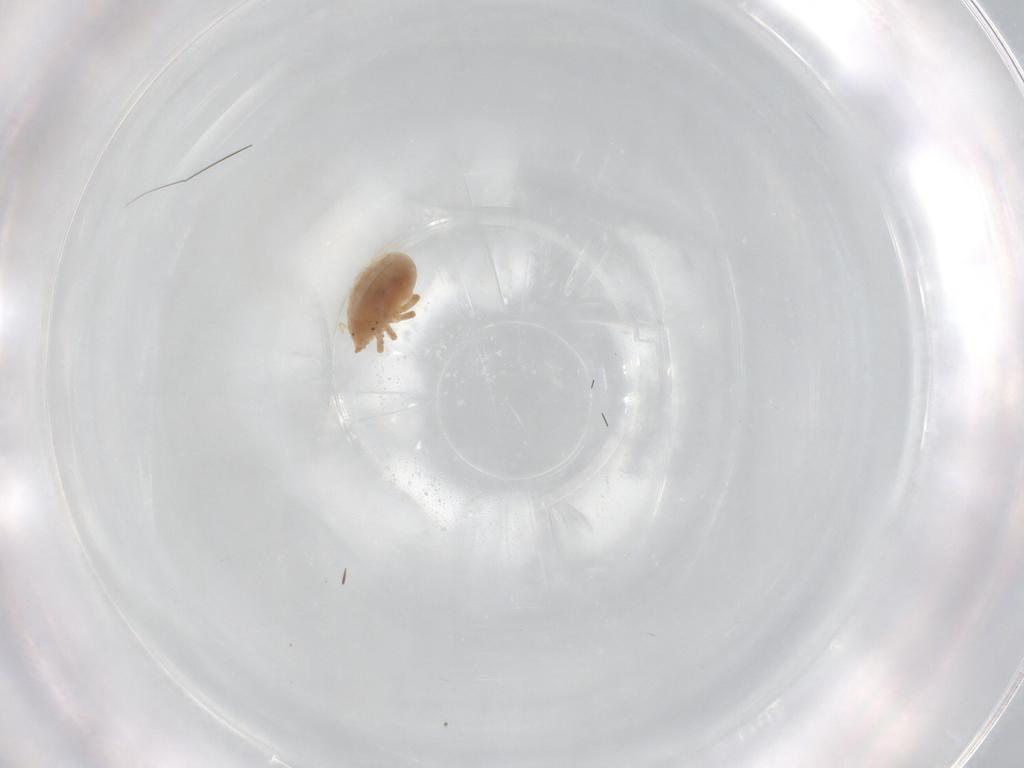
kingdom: Animalia
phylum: Arthropoda
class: Arachnida
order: Trombidiformes
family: Bdellidae
